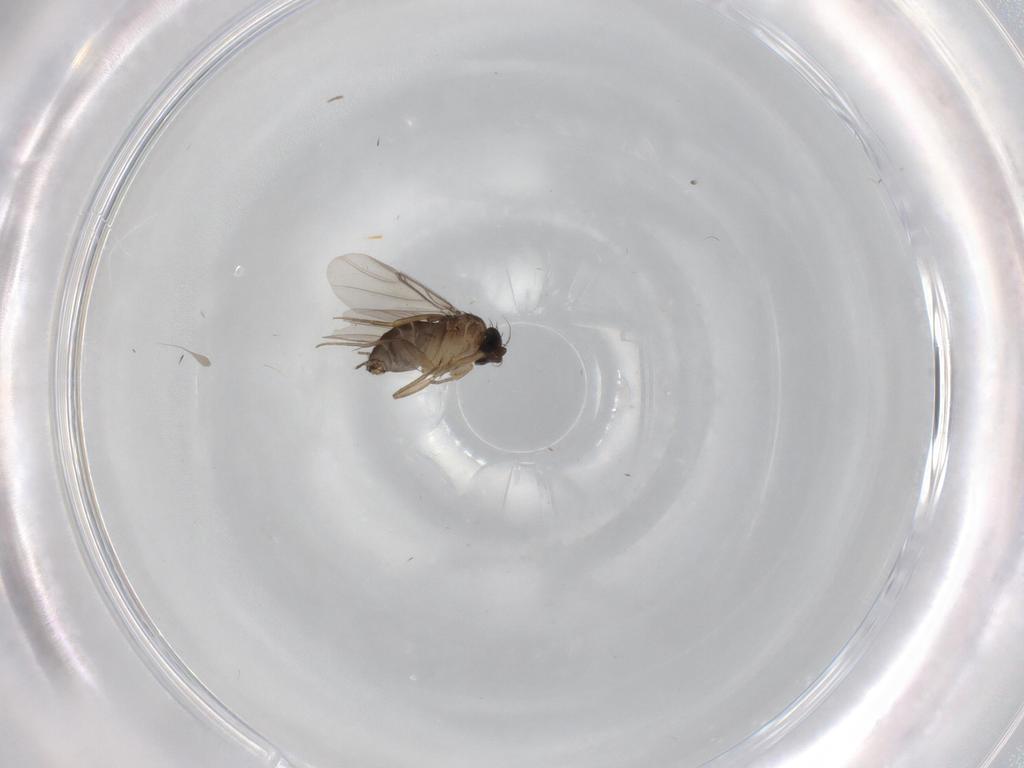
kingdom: Animalia
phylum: Arthropoda
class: Insecta
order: Diptera
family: Phoridae
